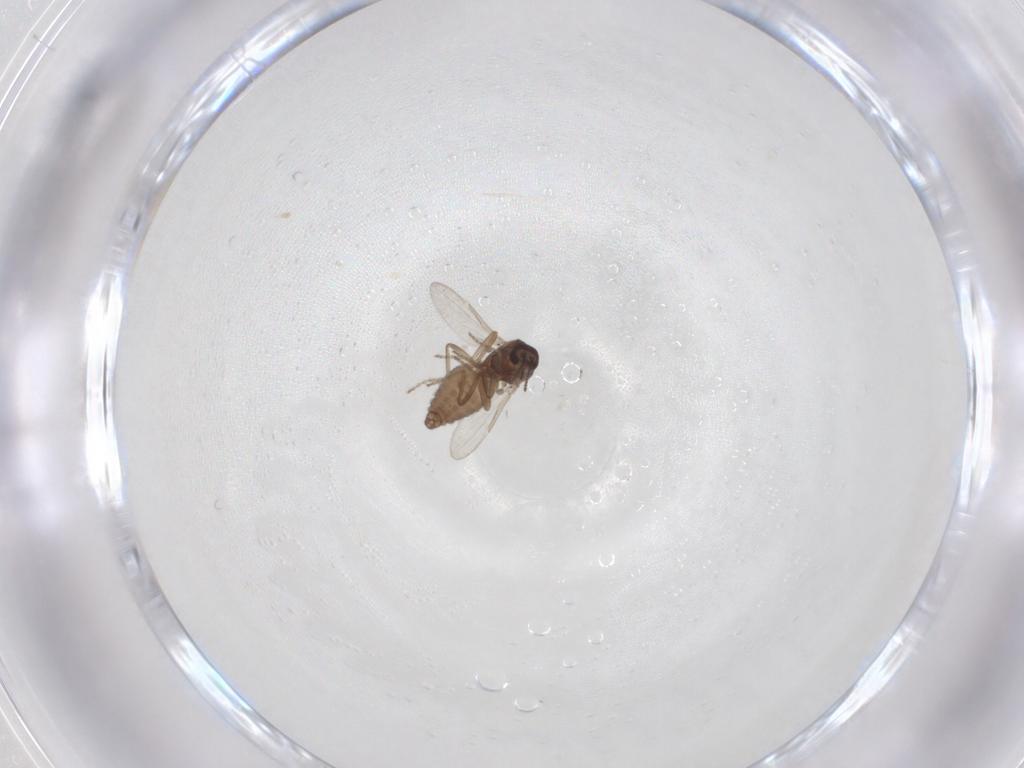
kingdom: Animalia
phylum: Arthropoda
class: Insecta
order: Diptera
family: Ceratopogonidae
